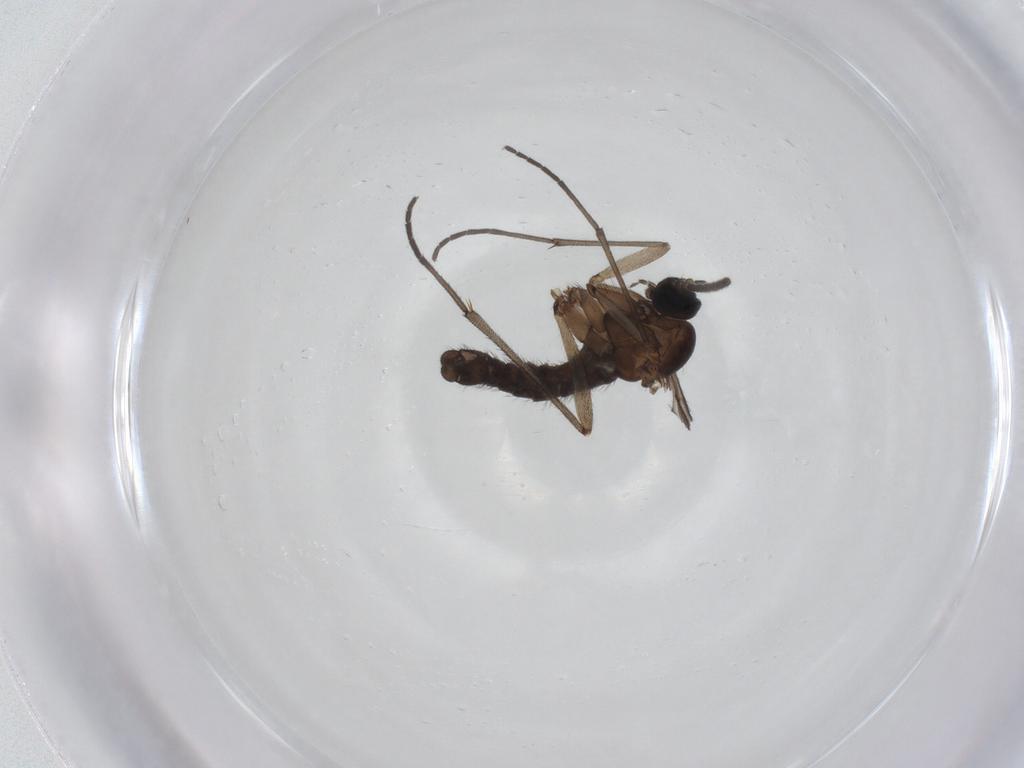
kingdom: Animalia
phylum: Arthropoda
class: Insecta
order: Diptera
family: Sciaridae
